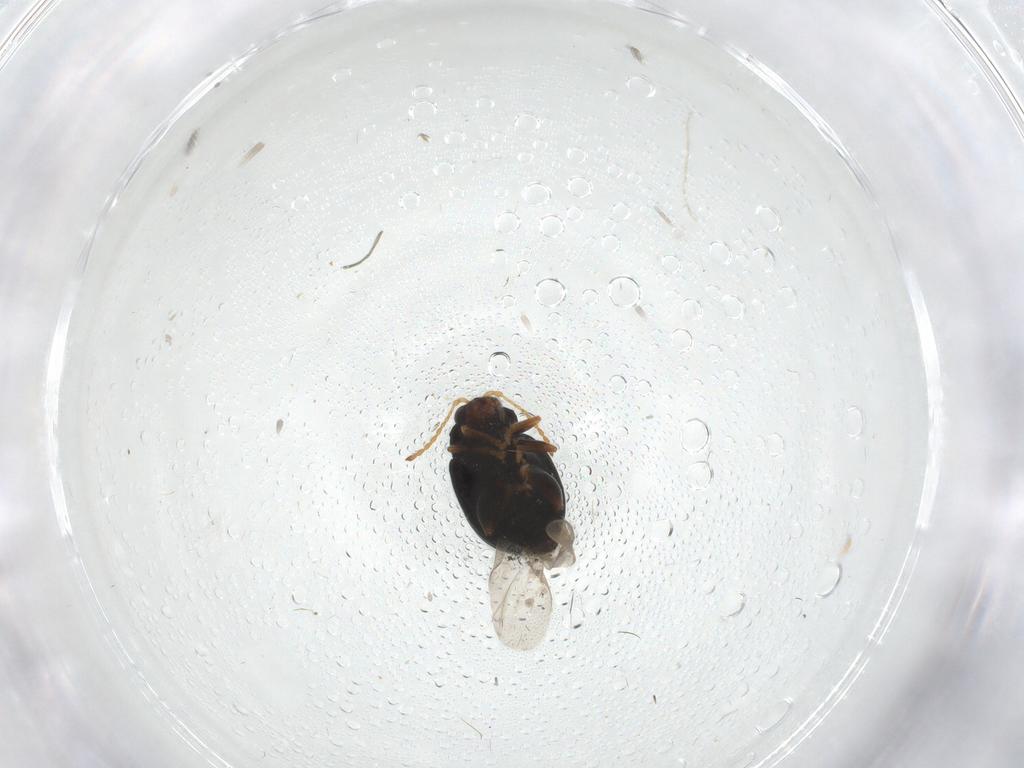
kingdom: Animalia
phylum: Arthropoda
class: Insecta
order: Coleoptera
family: Chrysomelidae
